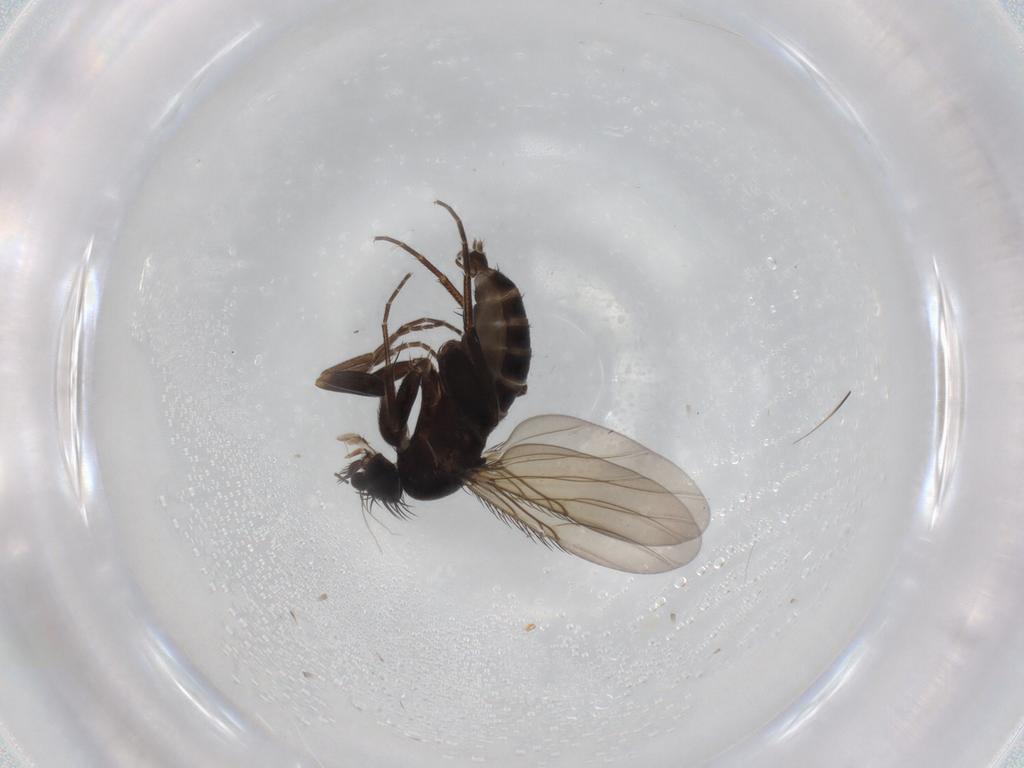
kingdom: Animalia
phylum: Arthropoda
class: Insecta
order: Diptera
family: Phoridae
